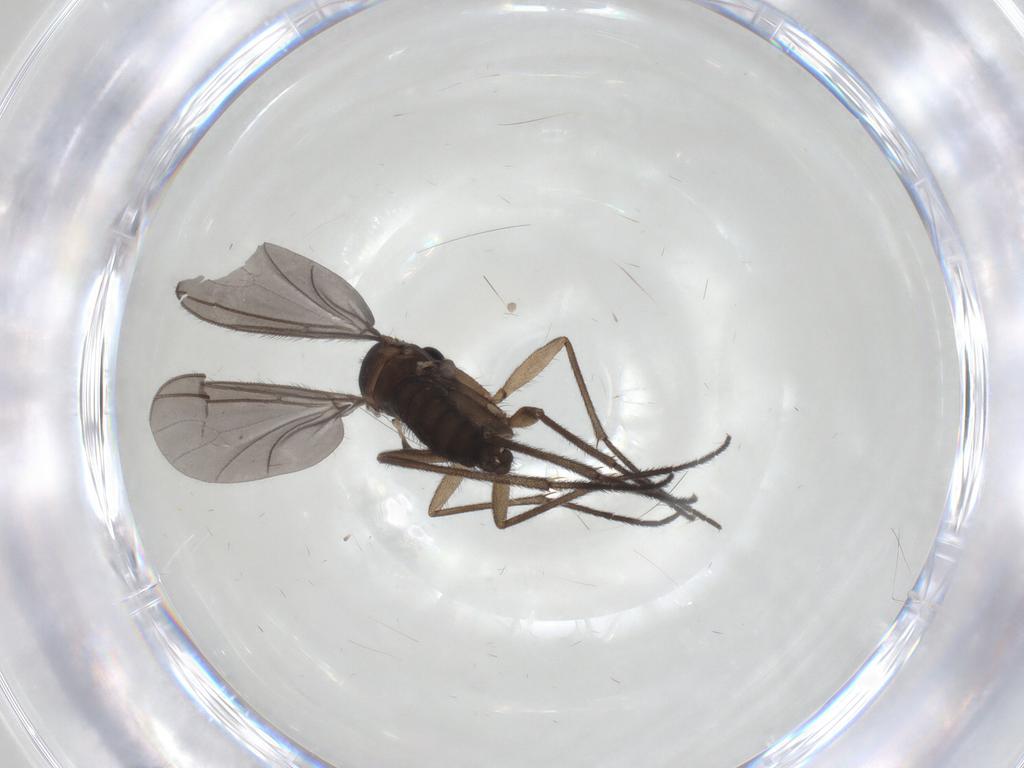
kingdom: Animalia
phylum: Arthropoda
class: Insecta
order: Diptera
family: Sciaridae
